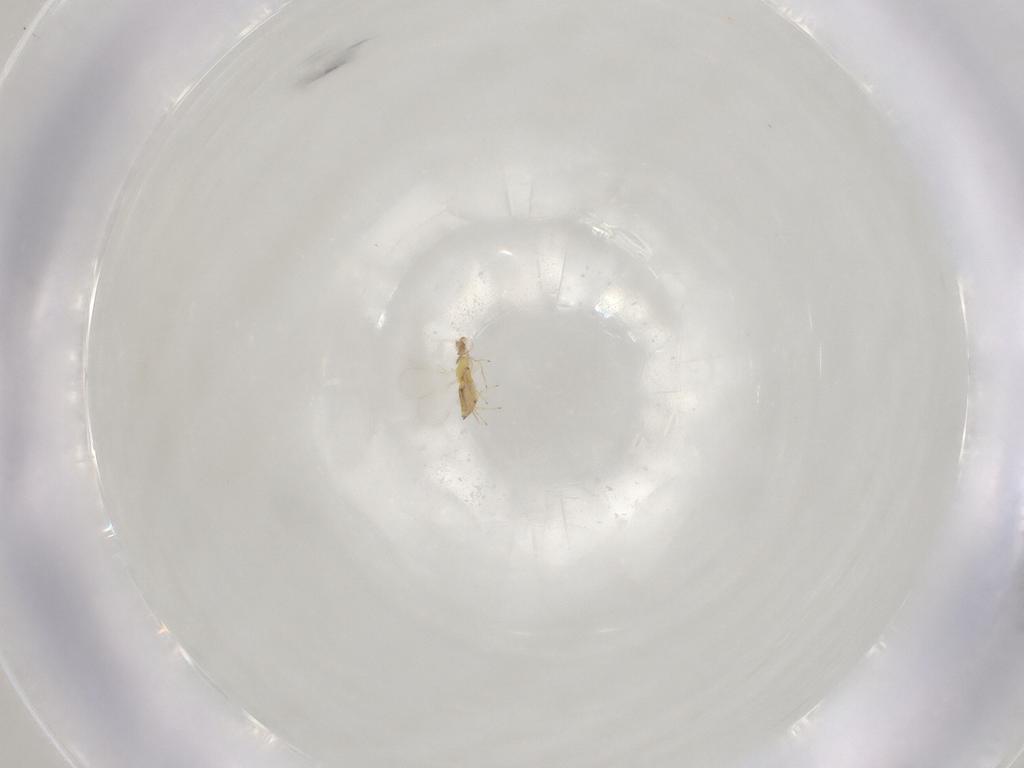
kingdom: Animalia
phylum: Arthropoda
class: Insecta
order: Hymenoptera
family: Trichogrammatidae
